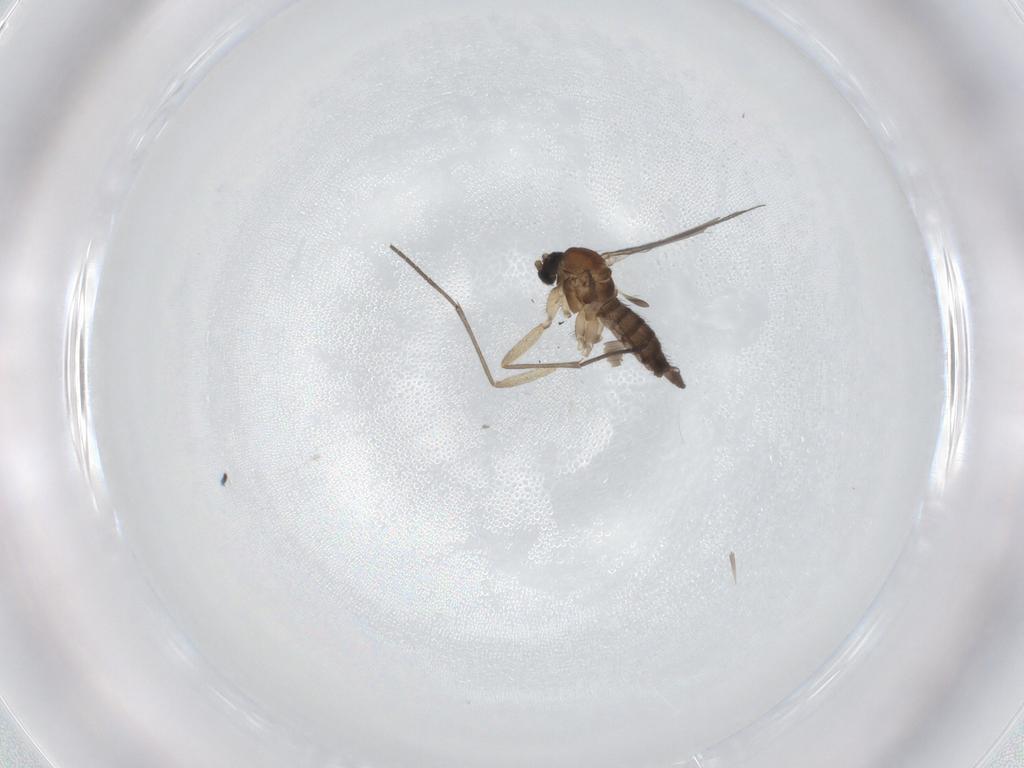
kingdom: Animalia
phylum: Arthropoda
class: Insecta
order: Diptera
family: Sciaridae
